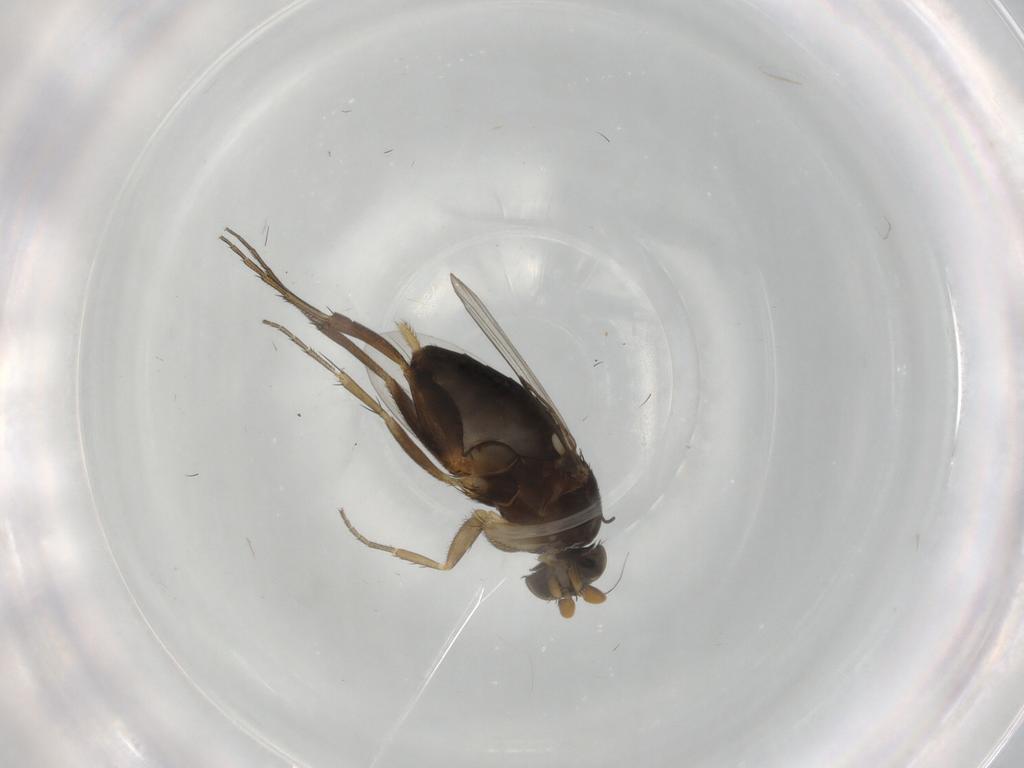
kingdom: Animalia
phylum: Arthropoda
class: Insecta
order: Diptera
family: Phoridae
